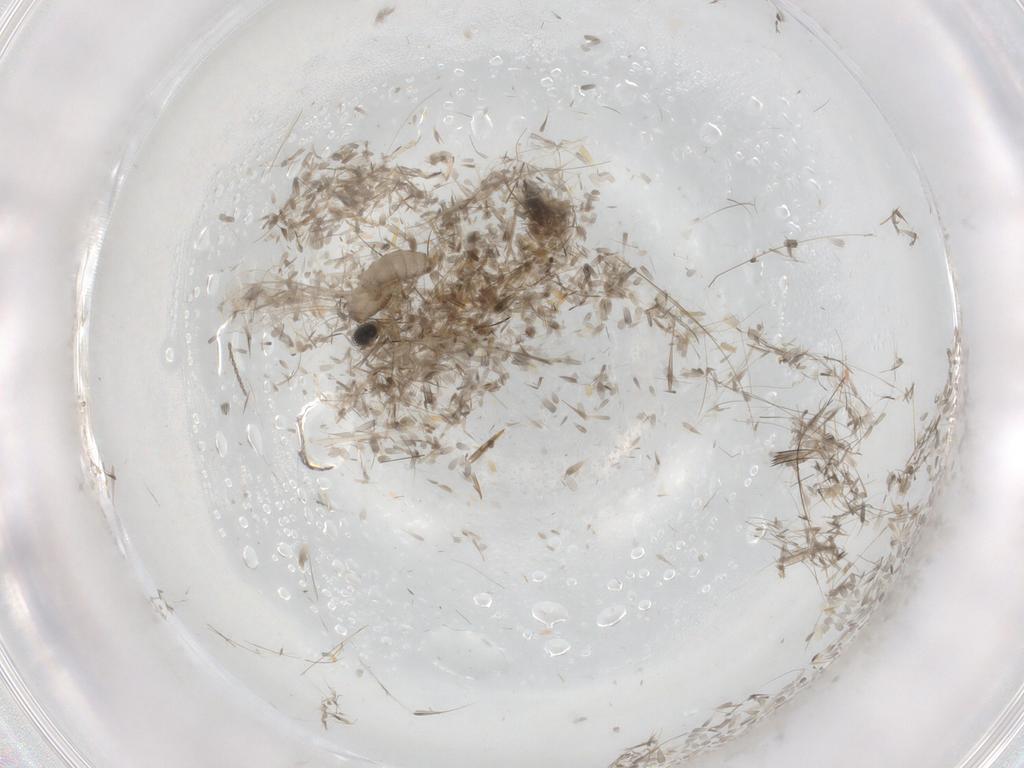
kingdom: Animalia
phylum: Arthropoda
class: Insecta
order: Diptera
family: Ceratopogonidae
